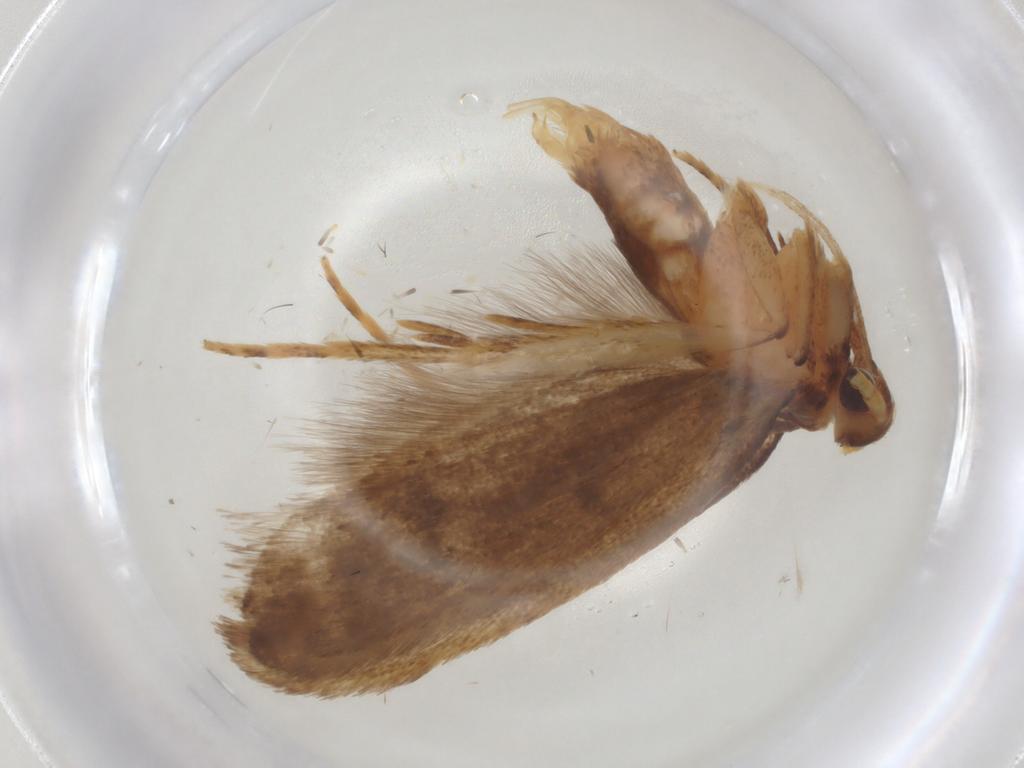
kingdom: Animalia
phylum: Arthropoda
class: Insecta
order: Lepidoptera
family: Lecithoceridae
